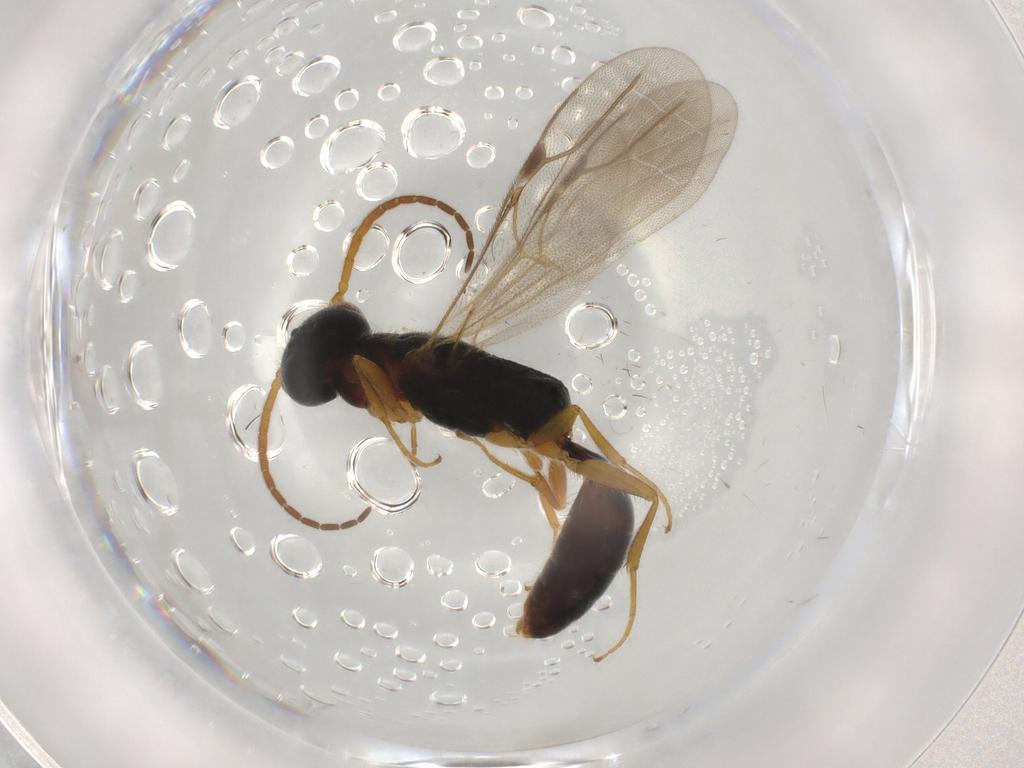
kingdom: Animalia
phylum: Arthropoda
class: Insecta
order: Hymenoptera
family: Bethylidae
